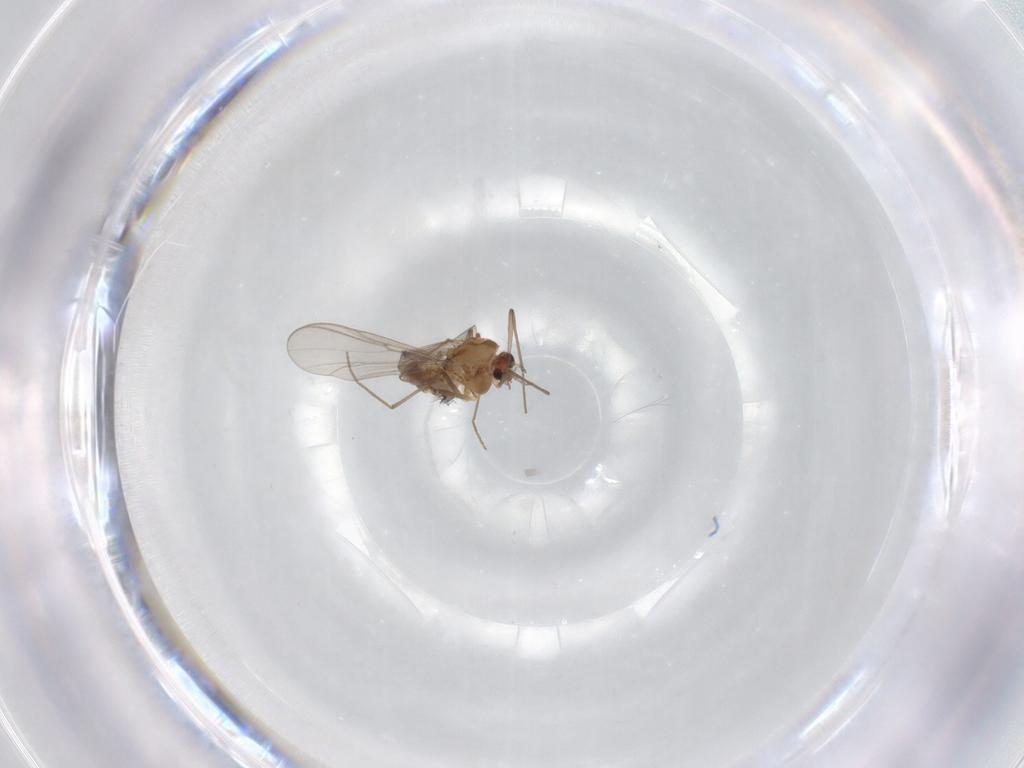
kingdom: Animalia
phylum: Arthropoda
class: Insecta
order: Diptera
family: Chironomidae
